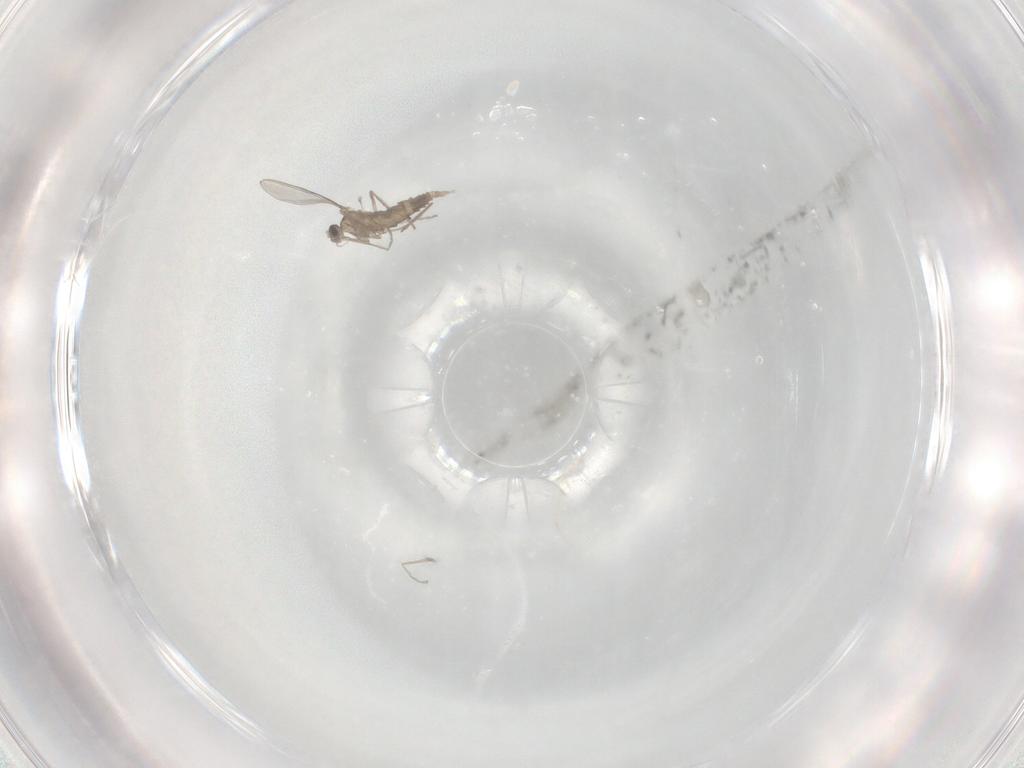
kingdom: Animalia
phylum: Arthropoda
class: Insecta
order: Diptera
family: Cecidomyiidae
